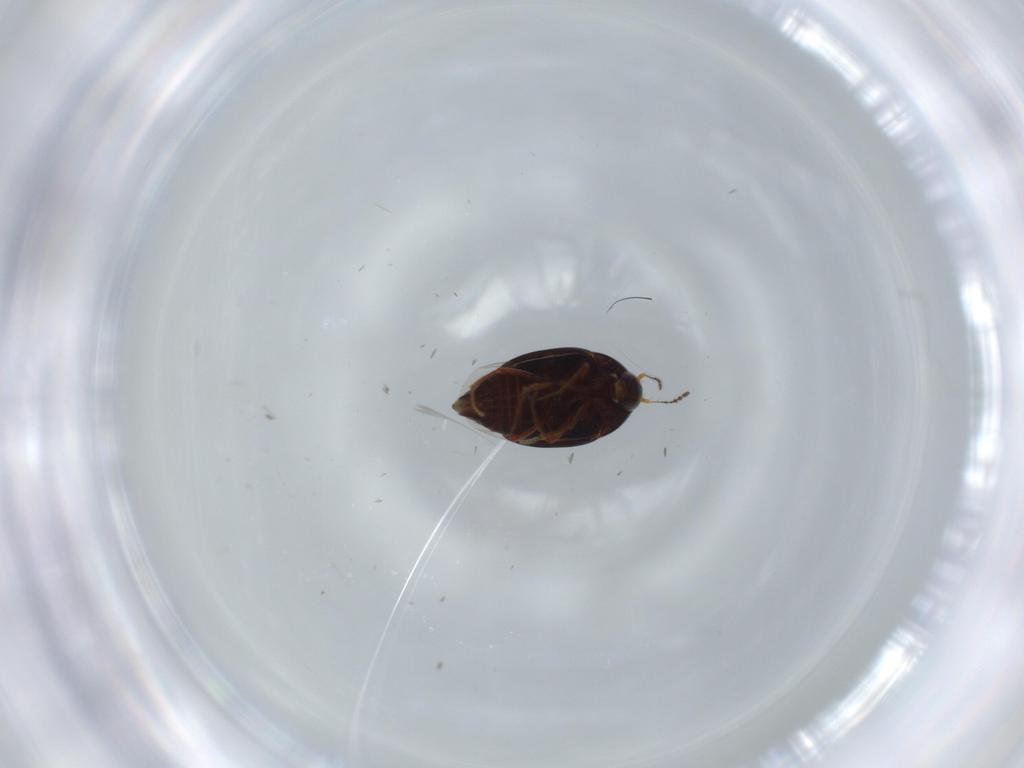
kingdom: Animalia
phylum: Arthropoda
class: Insecta
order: Coleoptera
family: Staphylinidae
